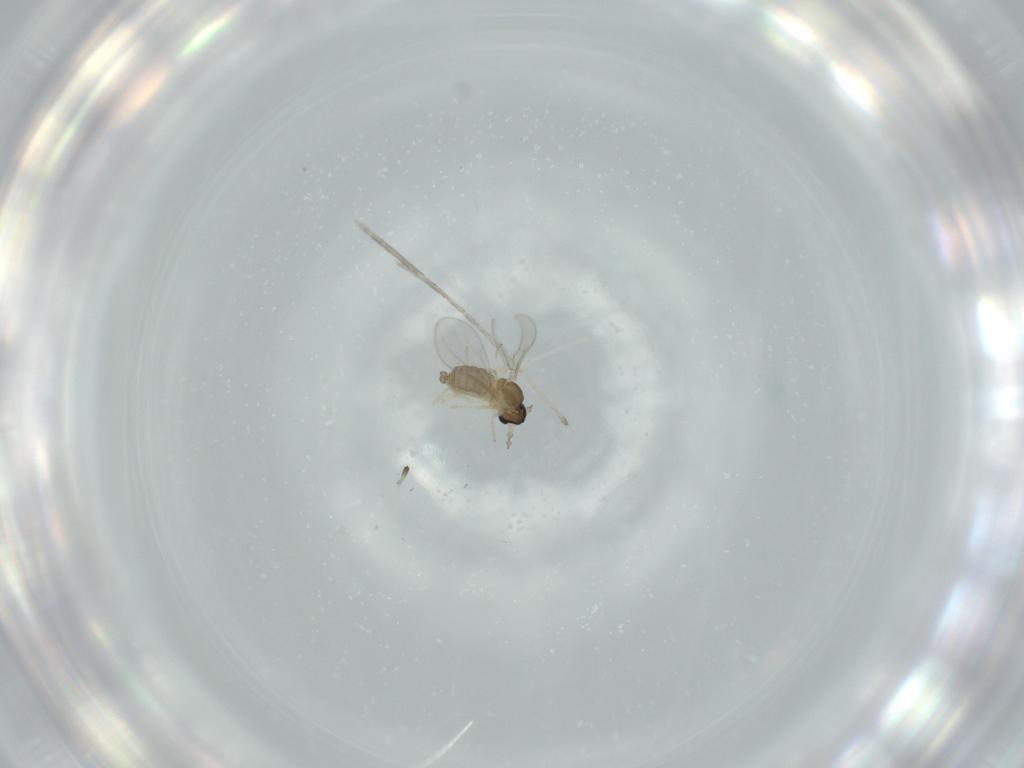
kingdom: Animalia
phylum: Arthropoda
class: Insecta
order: Diptera
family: Cecidomyiidae
